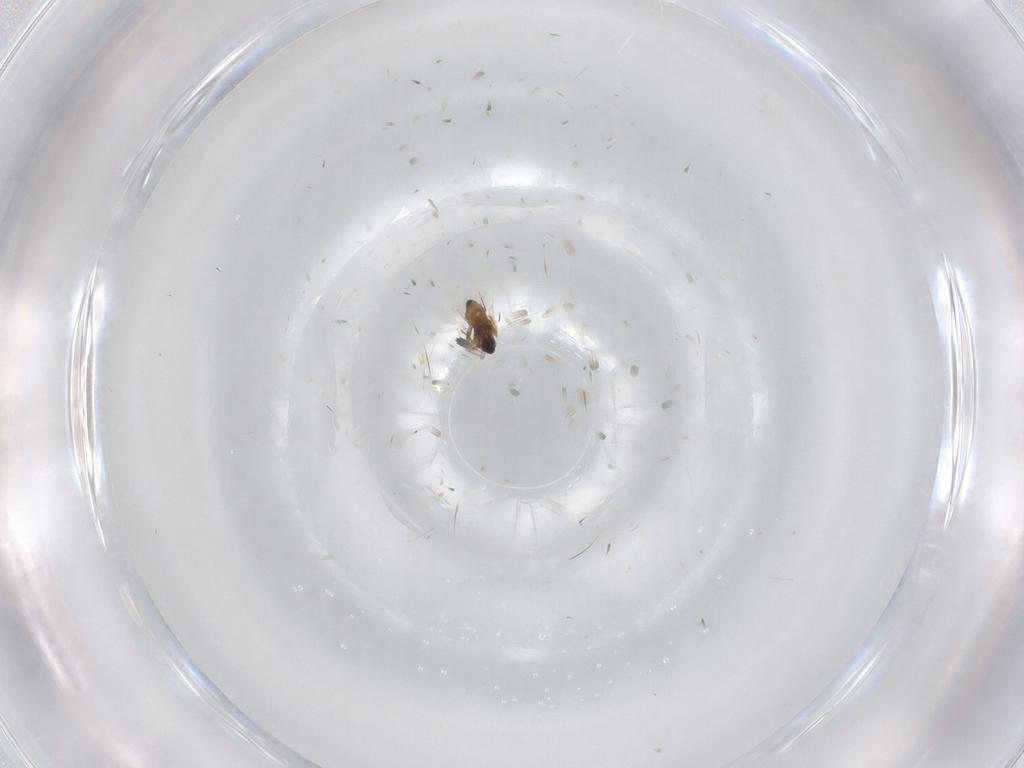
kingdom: Animalia
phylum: Arthropoda
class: Insecta
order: Diptera
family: Cecidomyiidae
